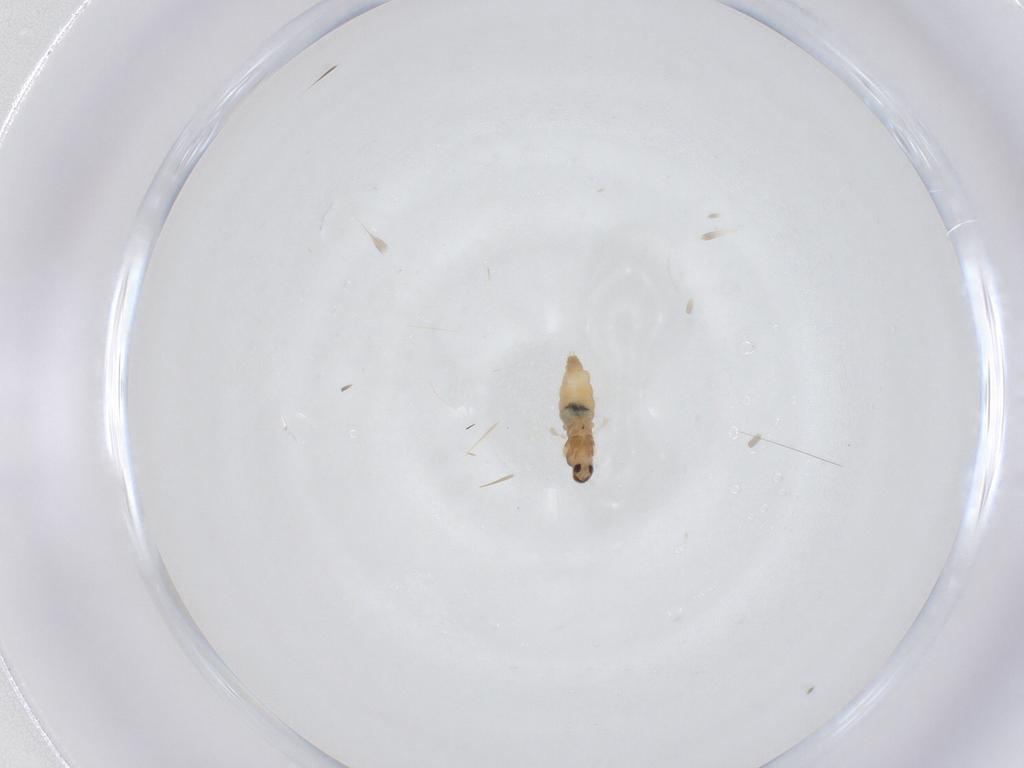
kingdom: Animalia
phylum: Arthropoda
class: Insecta
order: Diptera
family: Cecidomyiidae
